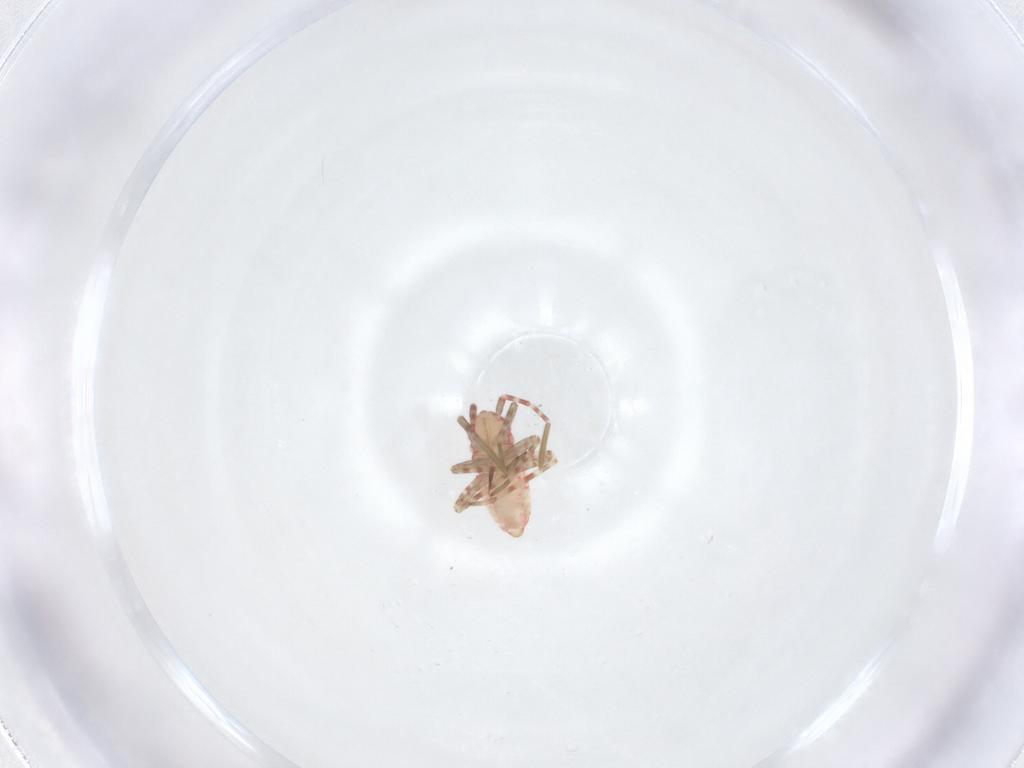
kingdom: Animalia
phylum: Arthropoda
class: Insecta
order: Hemiptera
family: Miridae
